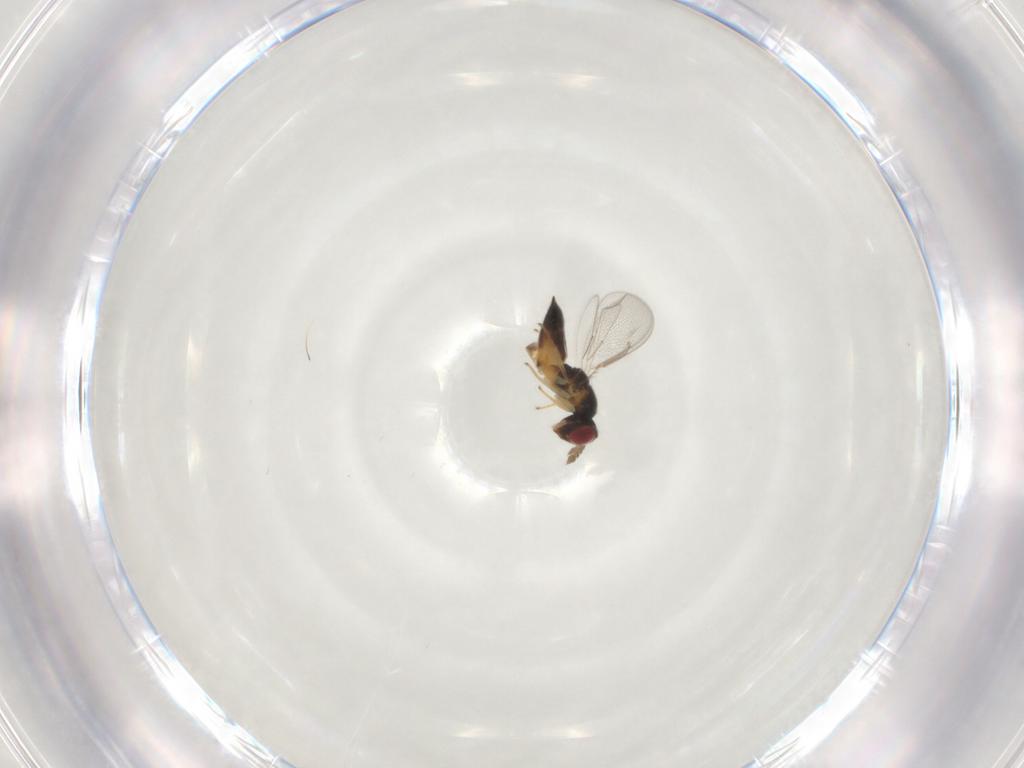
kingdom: Animalia
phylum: Arthropoda
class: Insecta
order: Hymenoptera
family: Eulophidae
